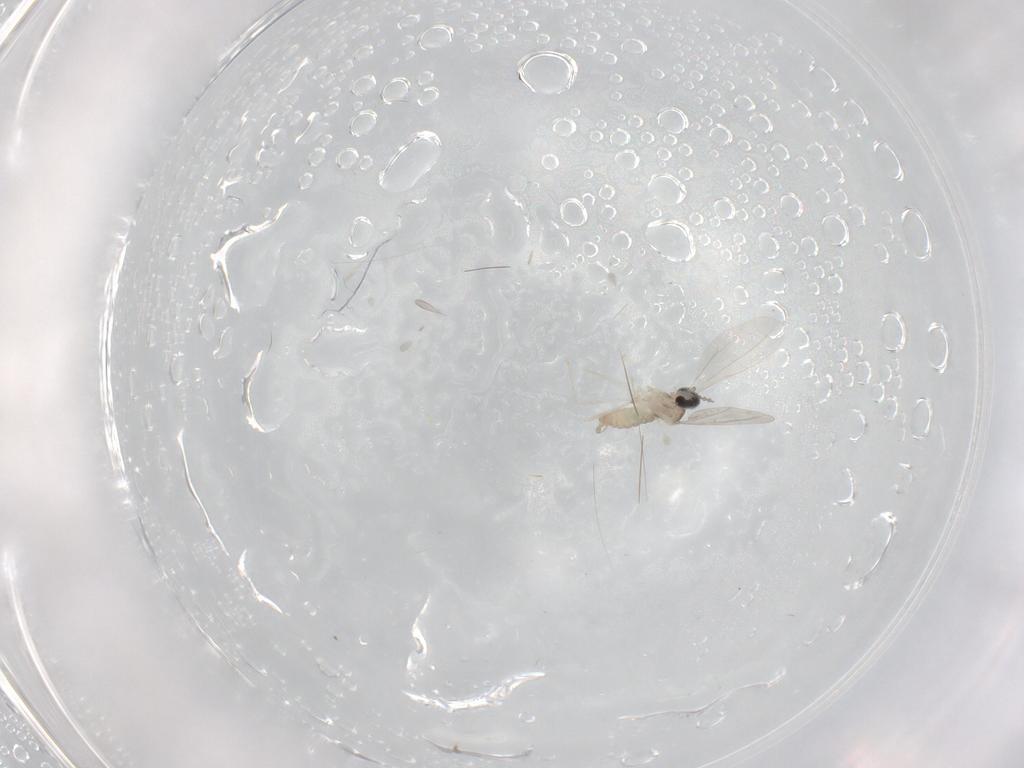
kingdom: Animalia
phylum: Arthropoda
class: Insecta
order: Diptera
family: Cecidomyiidae
